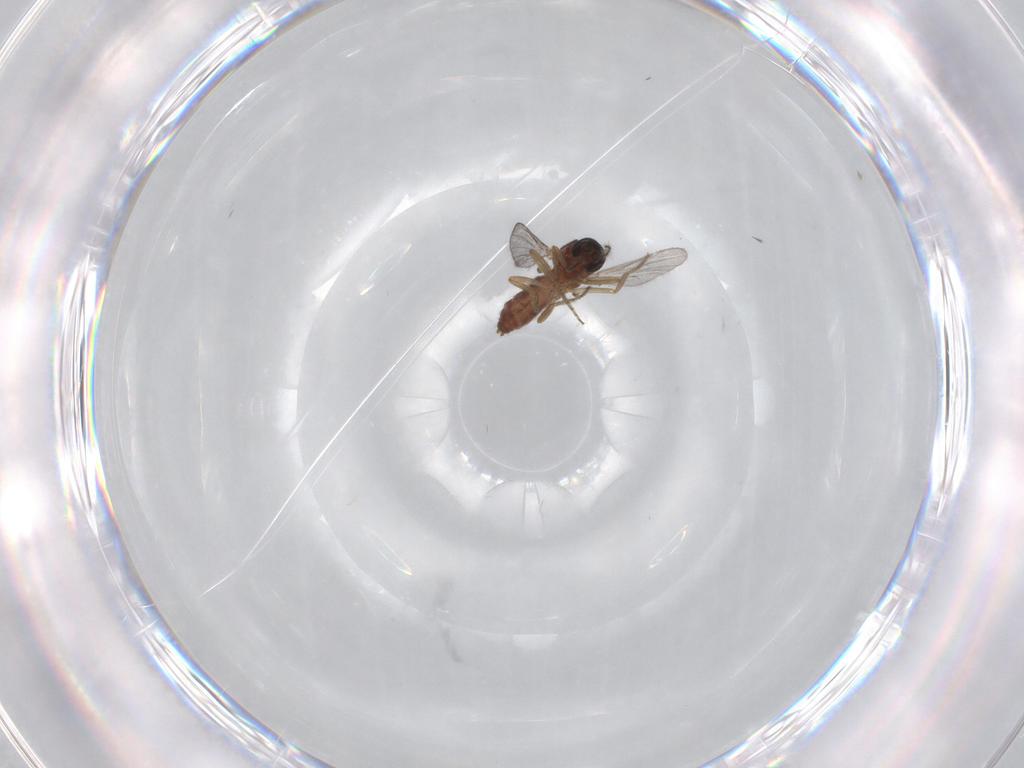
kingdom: Animalia
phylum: Arthropoda
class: Insecta
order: Diptera
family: Ceratopogonidae
